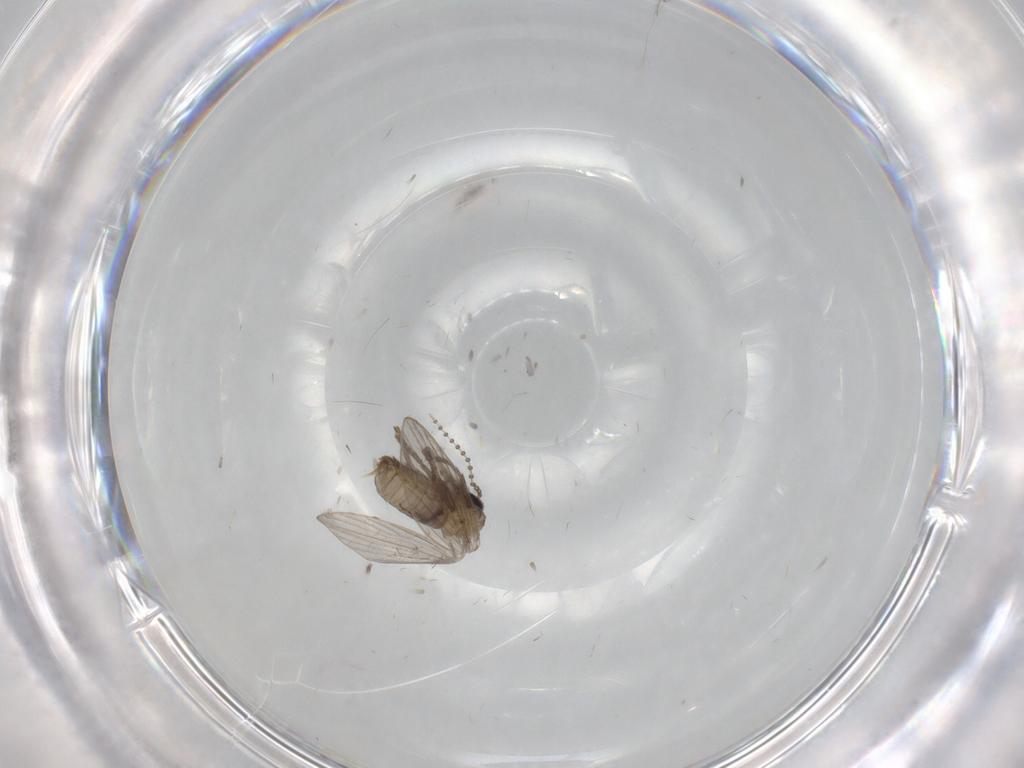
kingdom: Animalia
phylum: Arthropoda
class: Insecta
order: Diptera
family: Psychodidae
